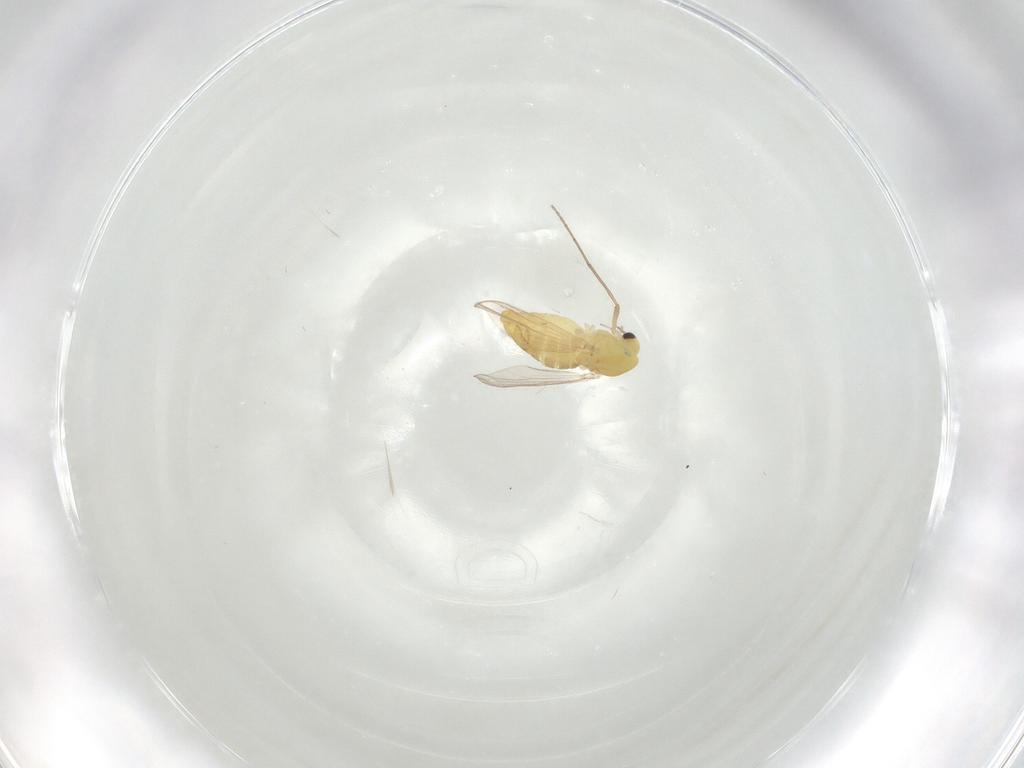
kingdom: Animalia
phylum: Arthropoda
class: Insecta
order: Diptera
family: Chironomidae
